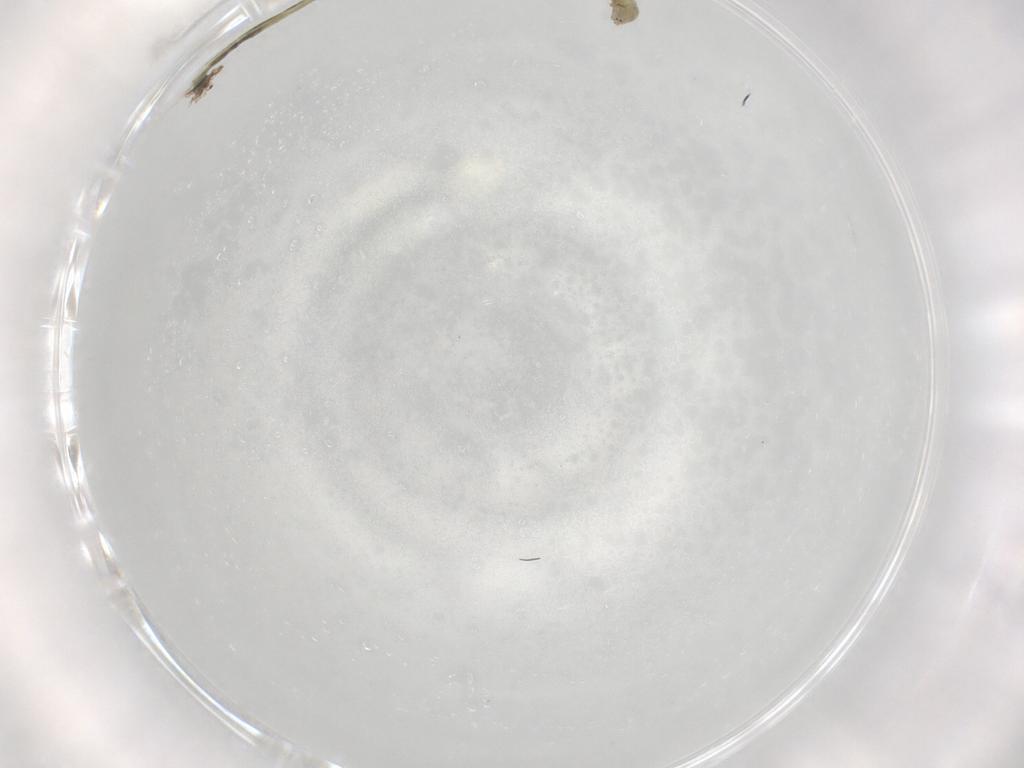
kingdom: Animalia
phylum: Arthropoda
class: Insecta
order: Diptera
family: Chironomidae
